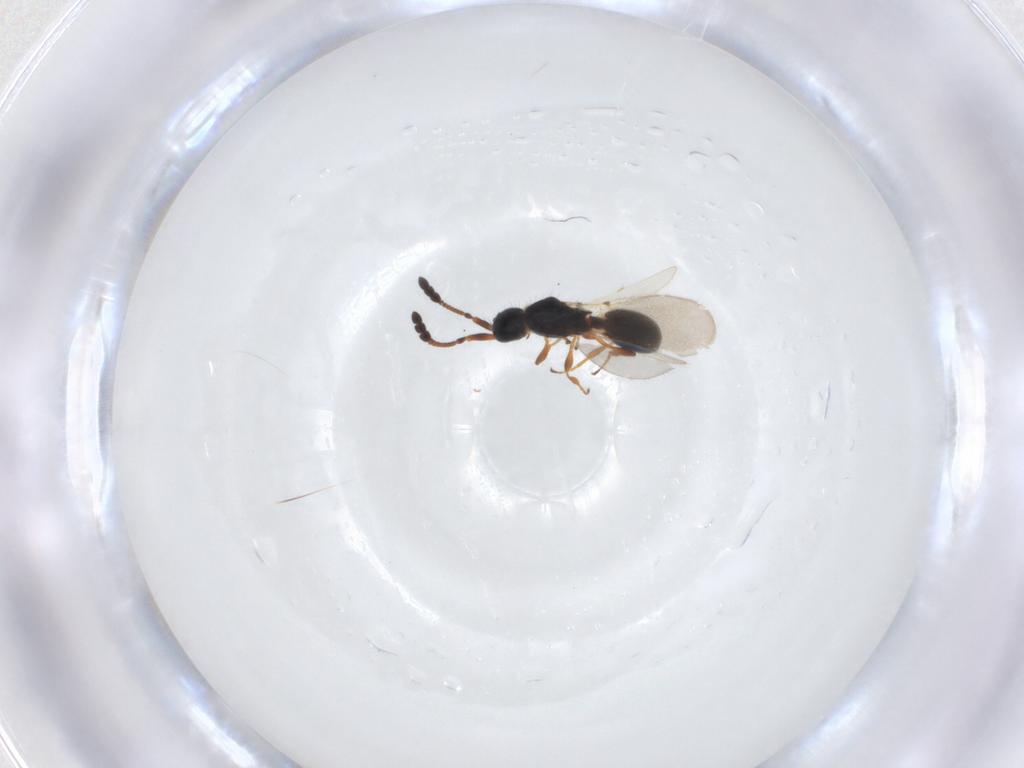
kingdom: Animalia
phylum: Arthropoda
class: Insecta
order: Hymenoptera
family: Diapriidae
